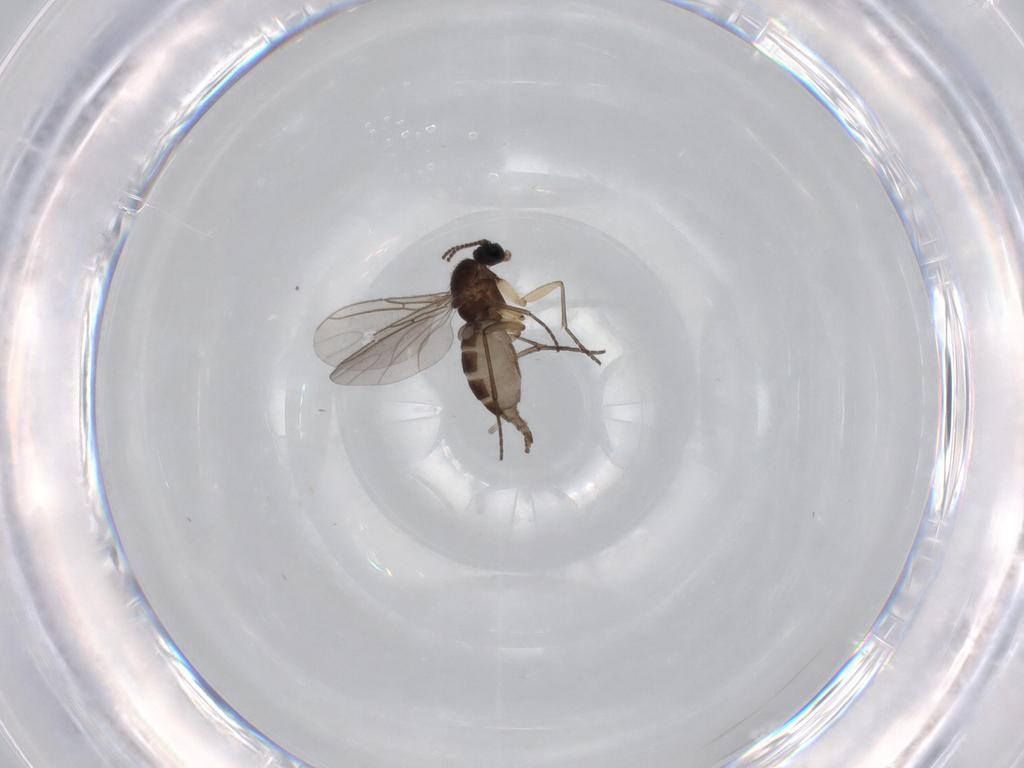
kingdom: Animalia
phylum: Arthropoda
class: Insecta
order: Diptera
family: Sciaridae
